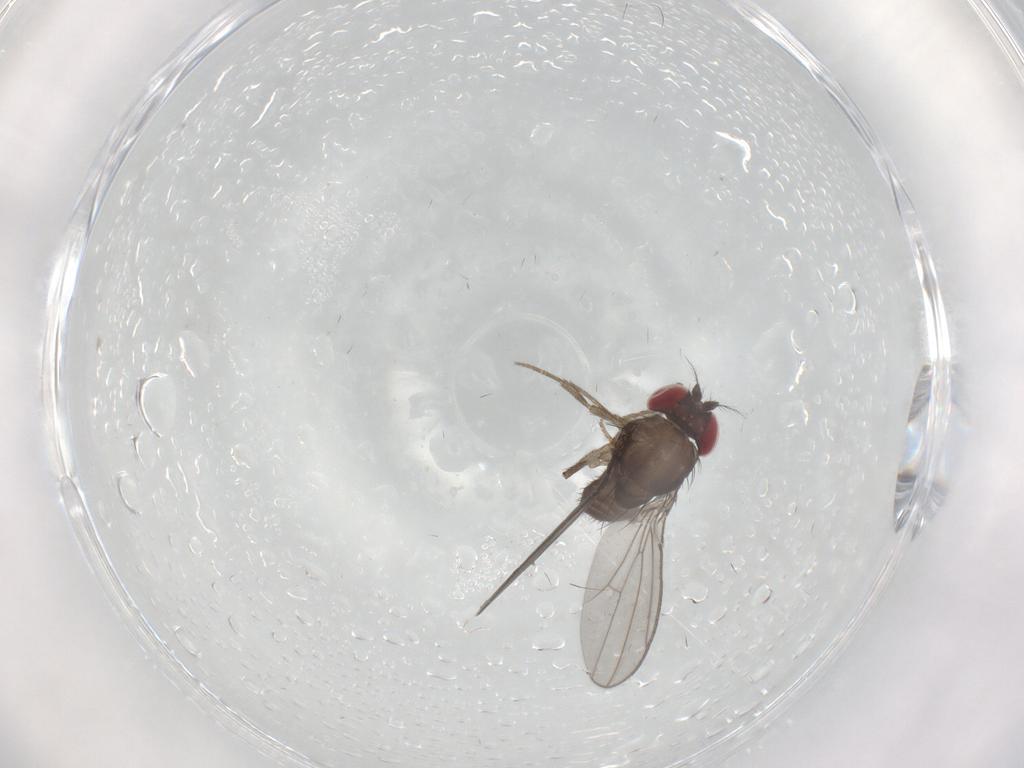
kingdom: Animalia
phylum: Arthropoda
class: Insecta
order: Diptera
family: Drosophilidae
